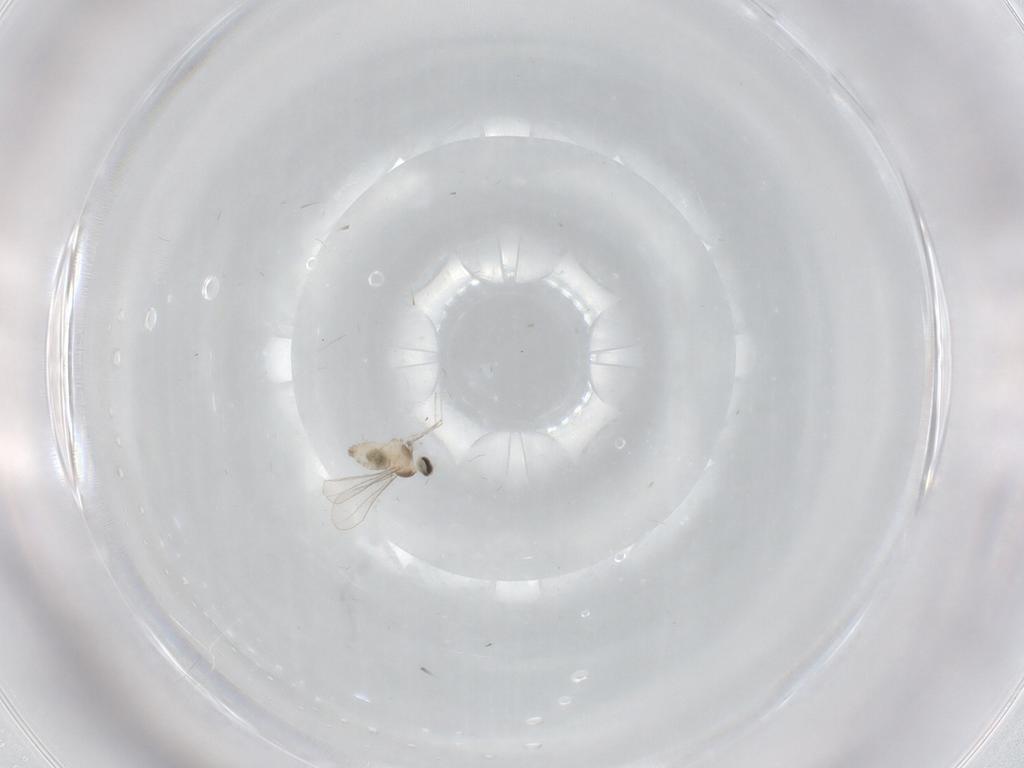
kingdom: Animalia
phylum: Arthropoda
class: Insecta
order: Diptera
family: Cecidomyiidae
